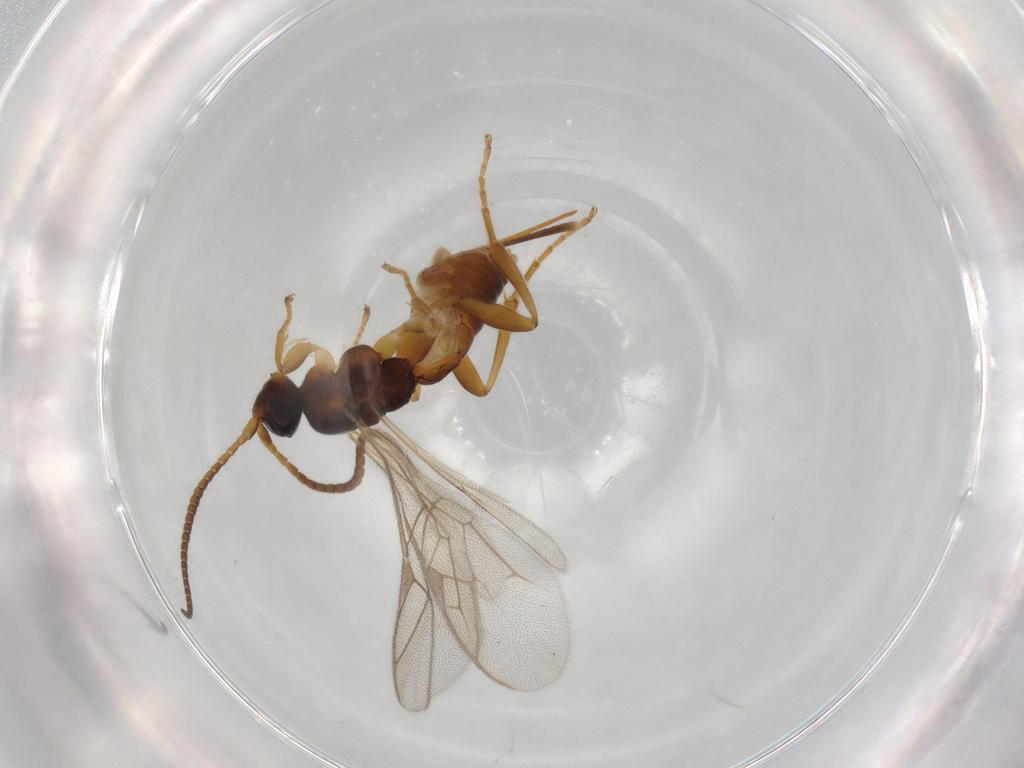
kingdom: Animalia
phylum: Arthropoda
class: Insecta
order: Hymenoptera
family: Ichneumonidae
